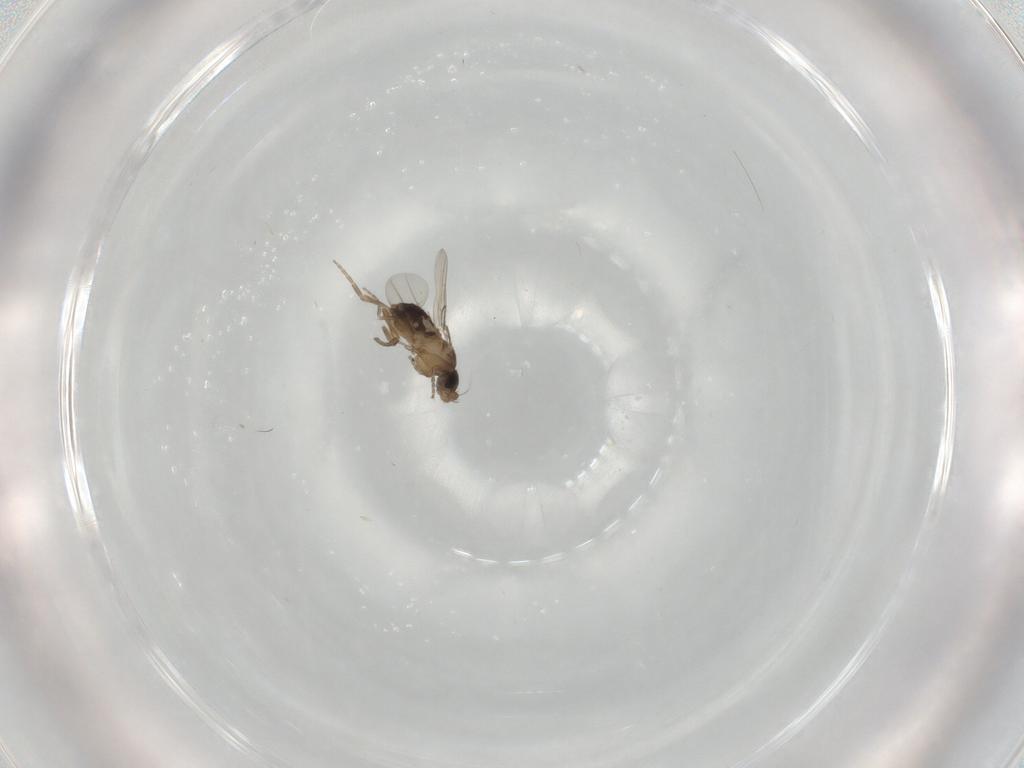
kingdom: Animalia
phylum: Arthropoda
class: Insecta
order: Diptera
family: Phoridae
